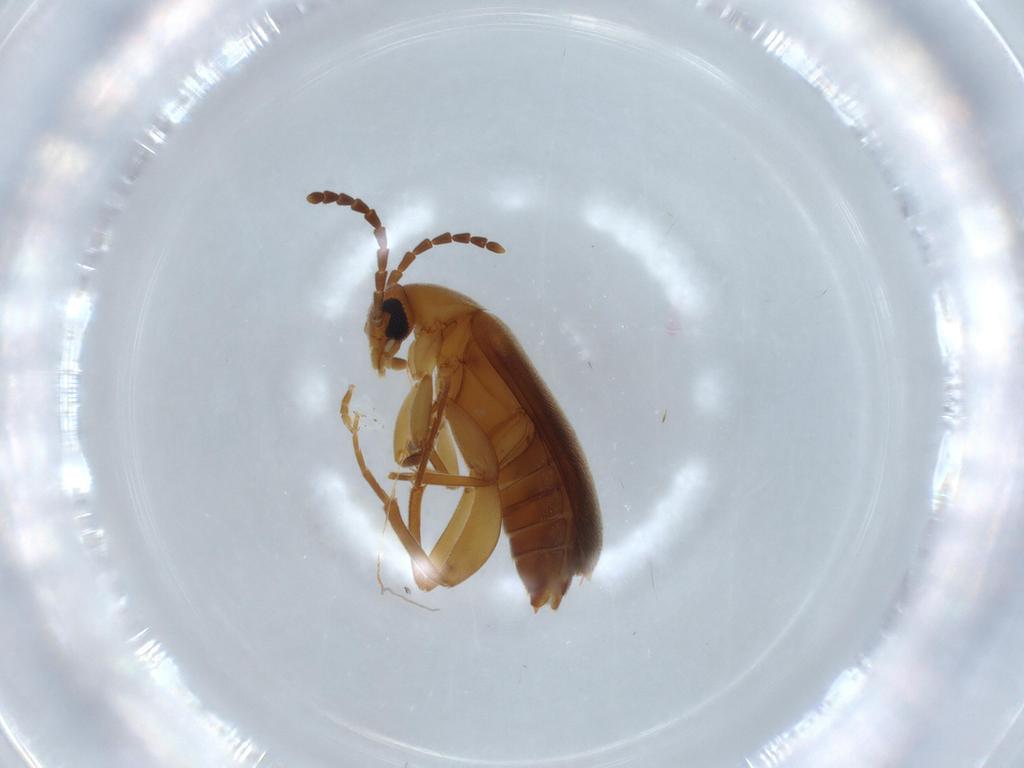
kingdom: Animalia
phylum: Arthropoda
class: Insecta
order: Coleoptera
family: Scraptiidae
